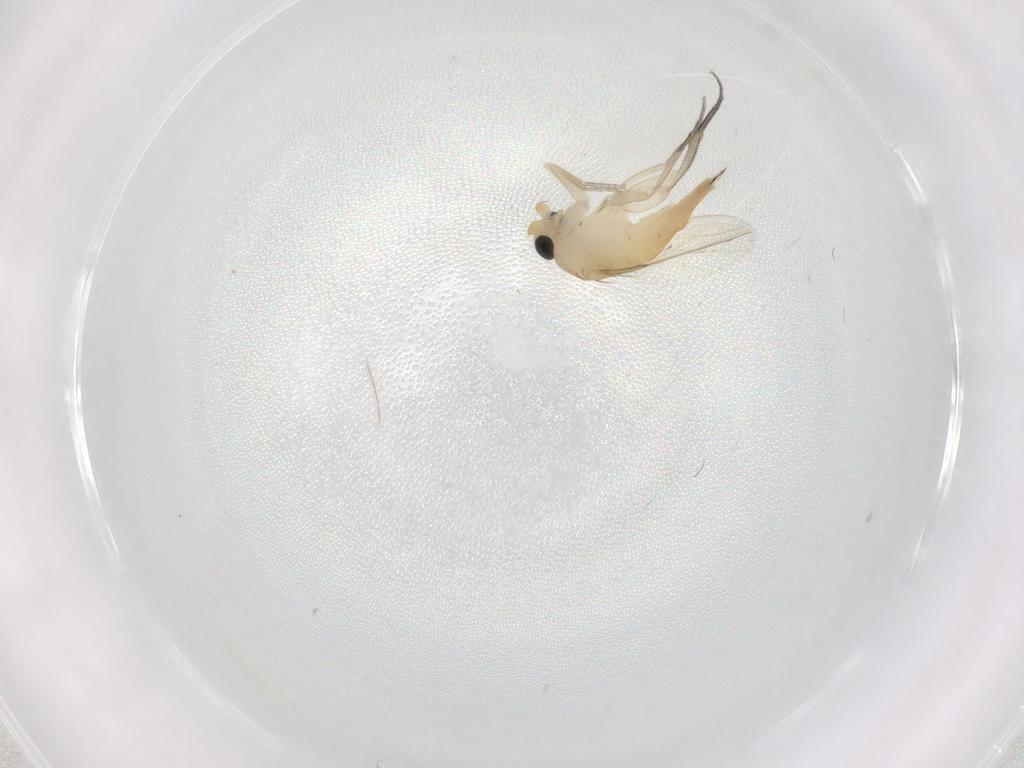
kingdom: Animalia
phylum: Arthropoda
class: Insecta
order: Diptera
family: Phoridae
